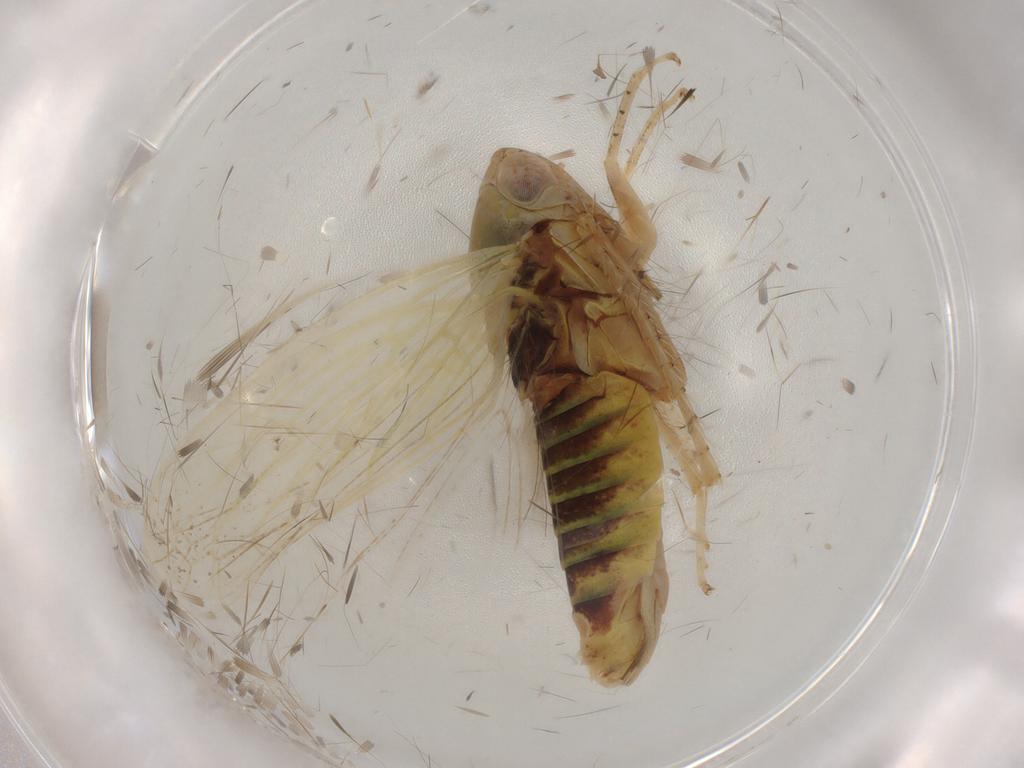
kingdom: Animalia
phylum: Arthropoda
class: Insecta
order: Hemiptera
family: Cicadellidae
